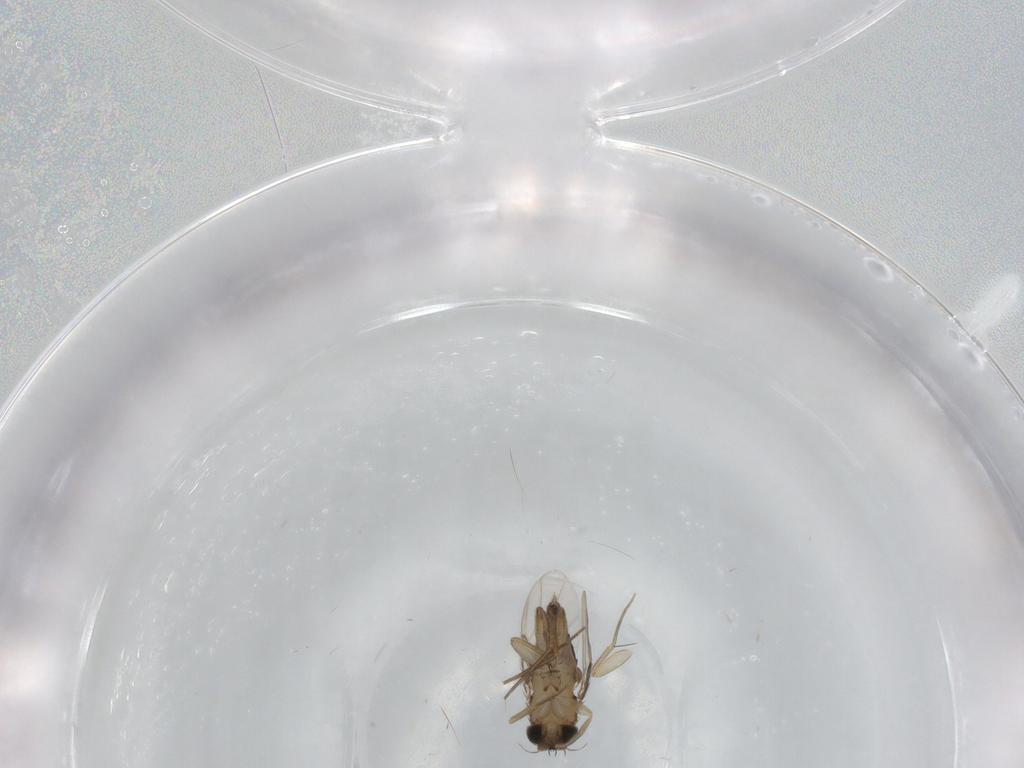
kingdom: Animalia
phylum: Arthropoda
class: Insecta
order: Diptera
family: Phoridae
